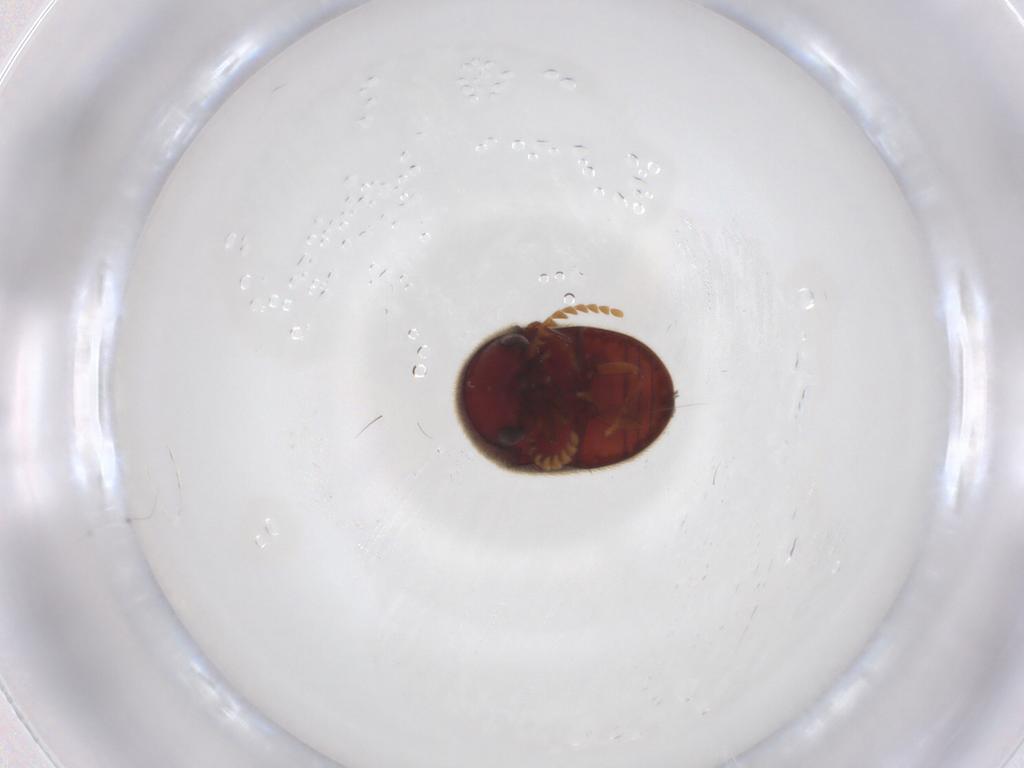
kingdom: Animalia
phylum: Arthropoda
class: Insecta
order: Coleoptera
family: Ptinidae
